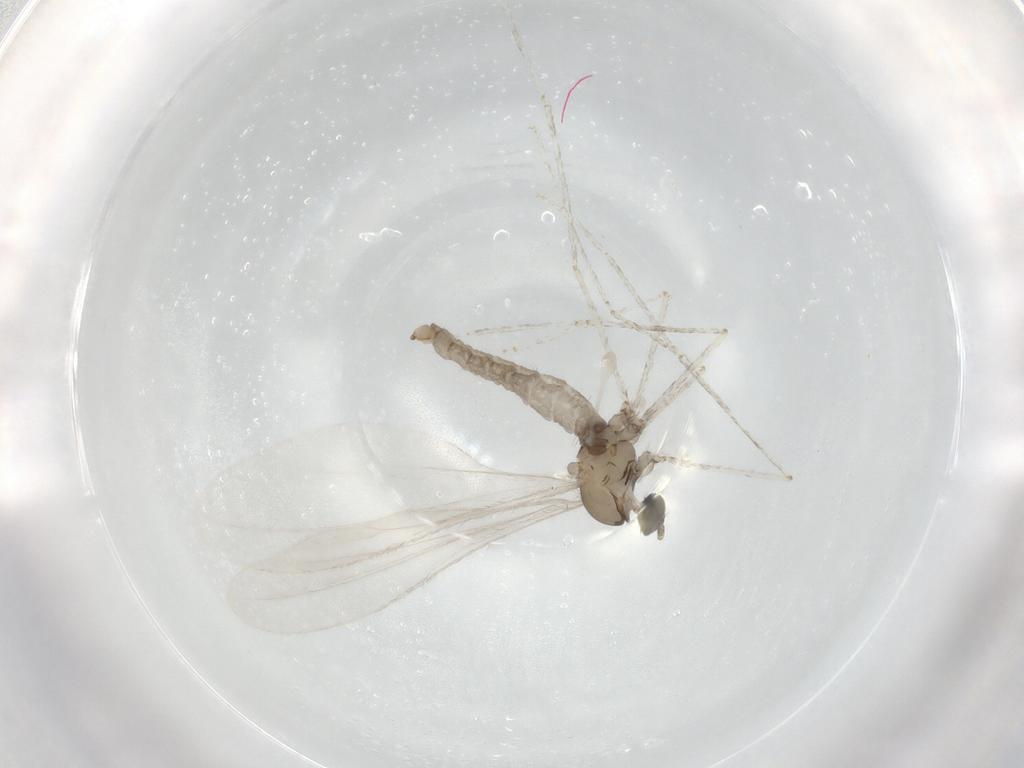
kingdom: Animalia
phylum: Arthropoda
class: Insecta
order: Diptera
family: Cecidomyiidae
